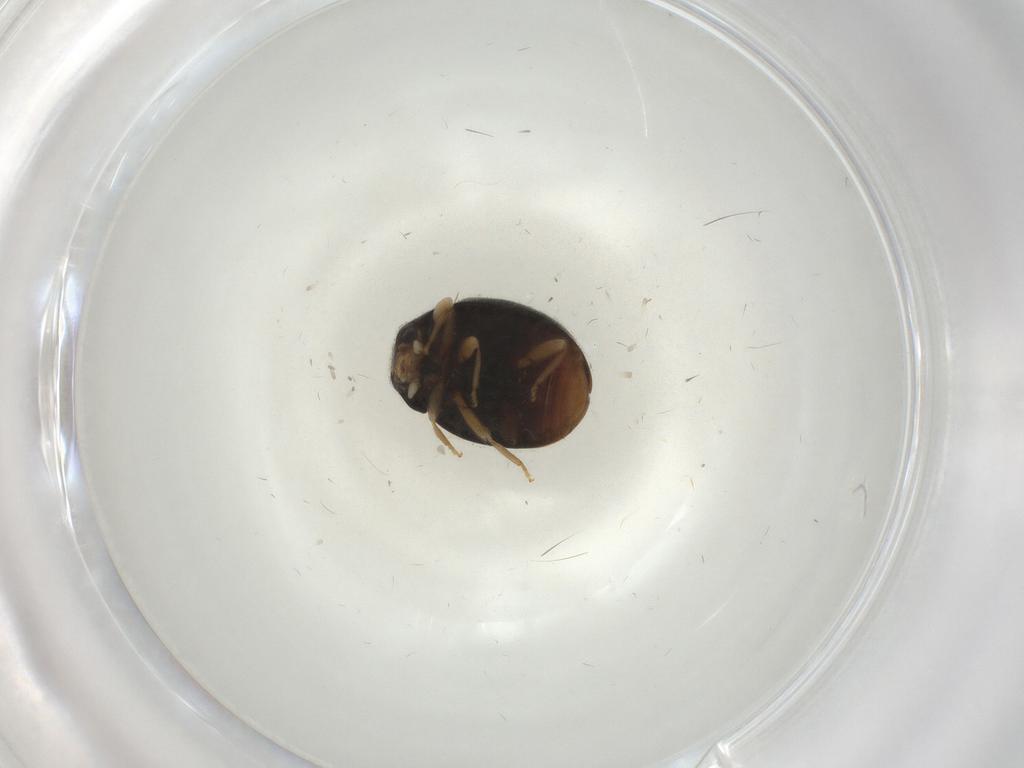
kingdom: Animalia
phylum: Arthropoda
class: Insecta
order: Coleoptera
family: Coccinellidae
